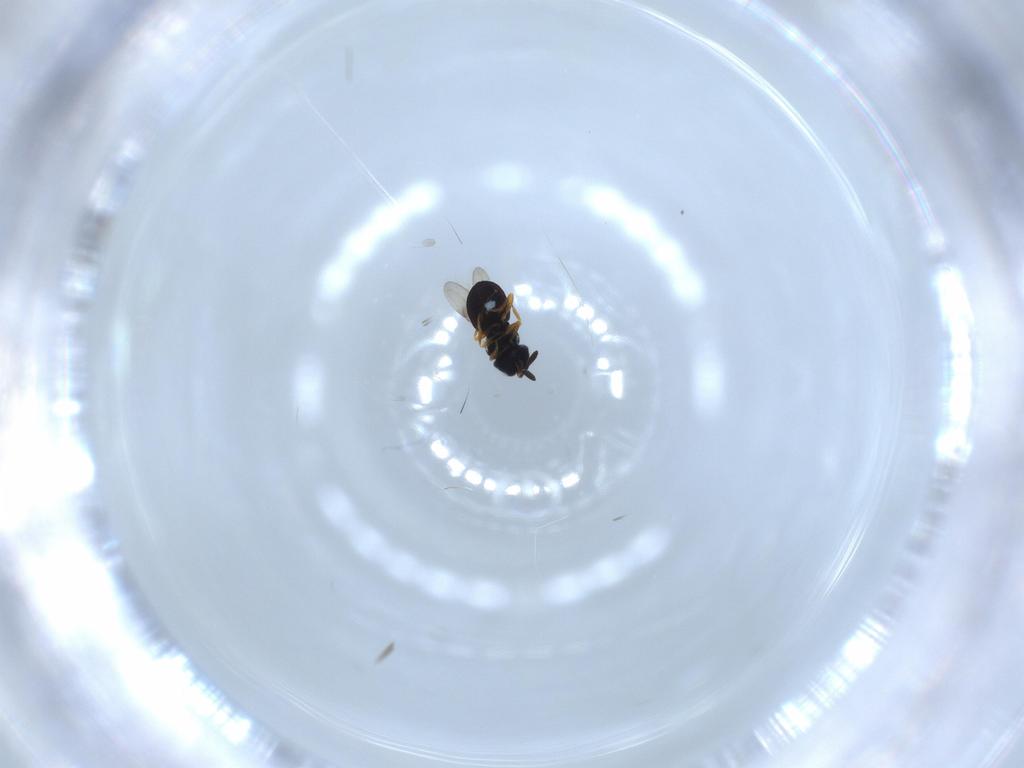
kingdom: Animalia
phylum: Arthropoda
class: Insecta
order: Hymenoptera
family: Scelionidae
